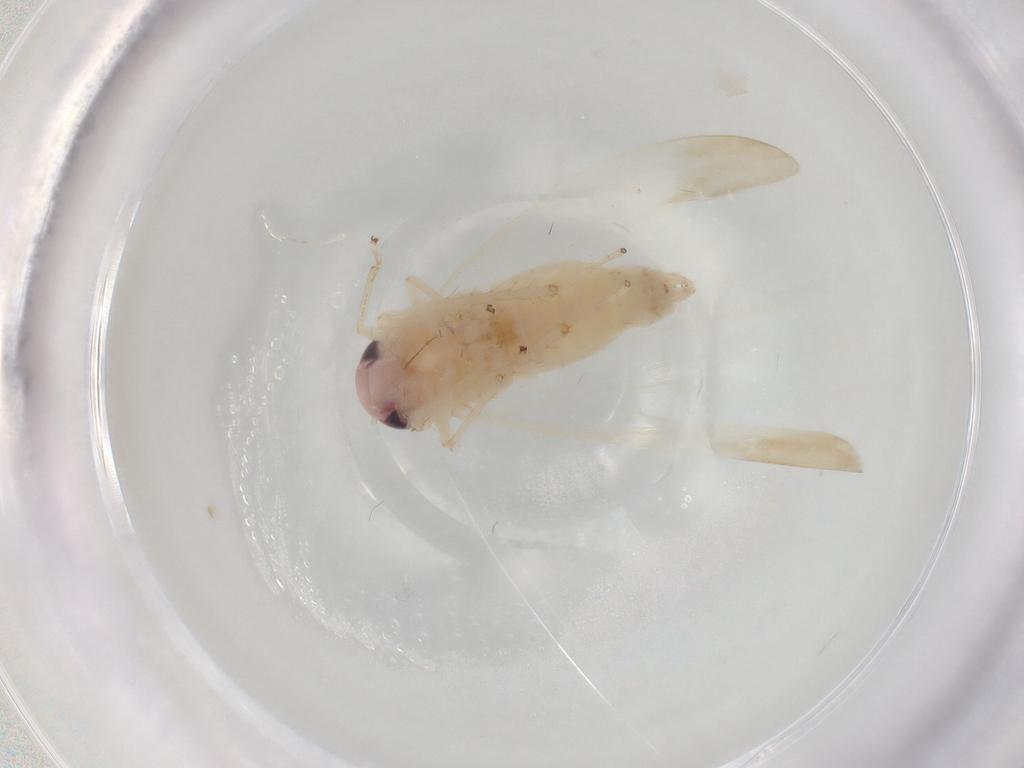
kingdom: Animalia
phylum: Arthropoda
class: Insecta
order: Hemiptera
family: Cicadellidae
